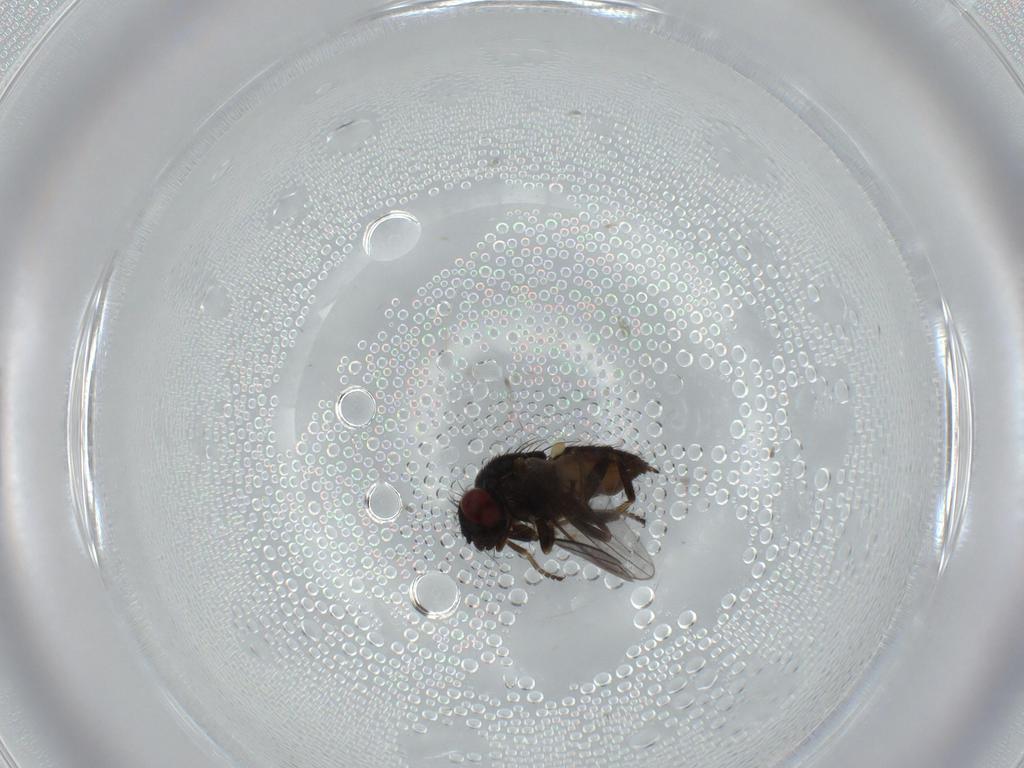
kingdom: Animalia
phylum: Arthropoda
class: Insecta
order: Diptera
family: Milichiidae
